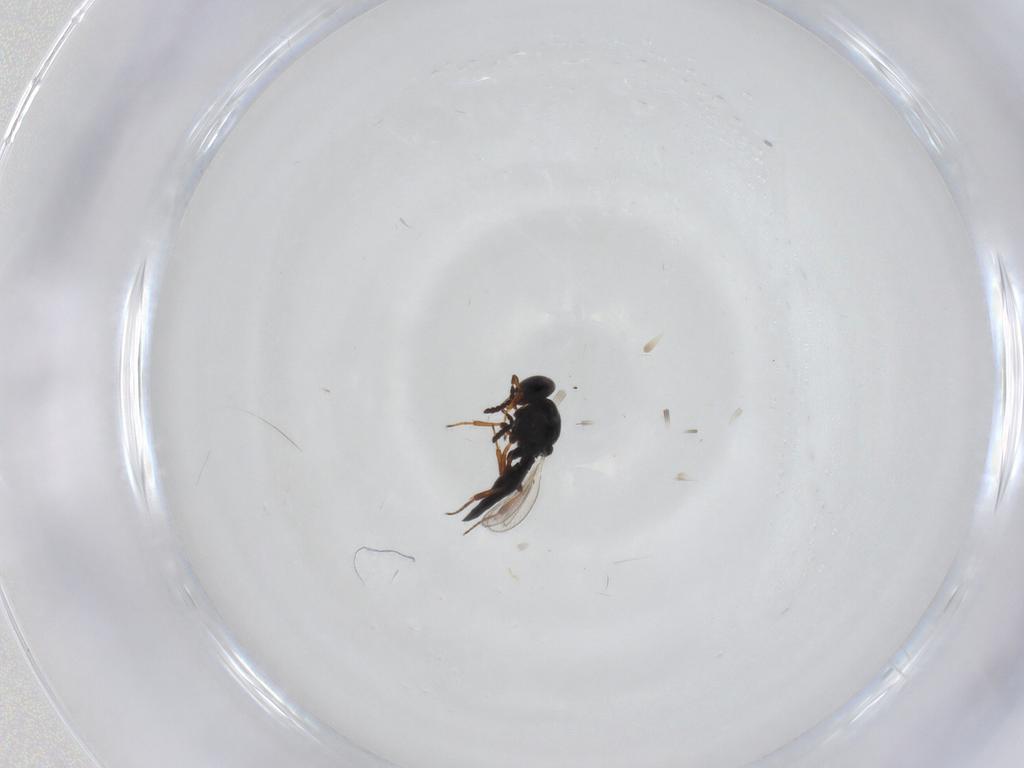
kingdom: Animalia
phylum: Arthropoda
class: Insecta
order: Hymenoptera
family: Platygastridae
